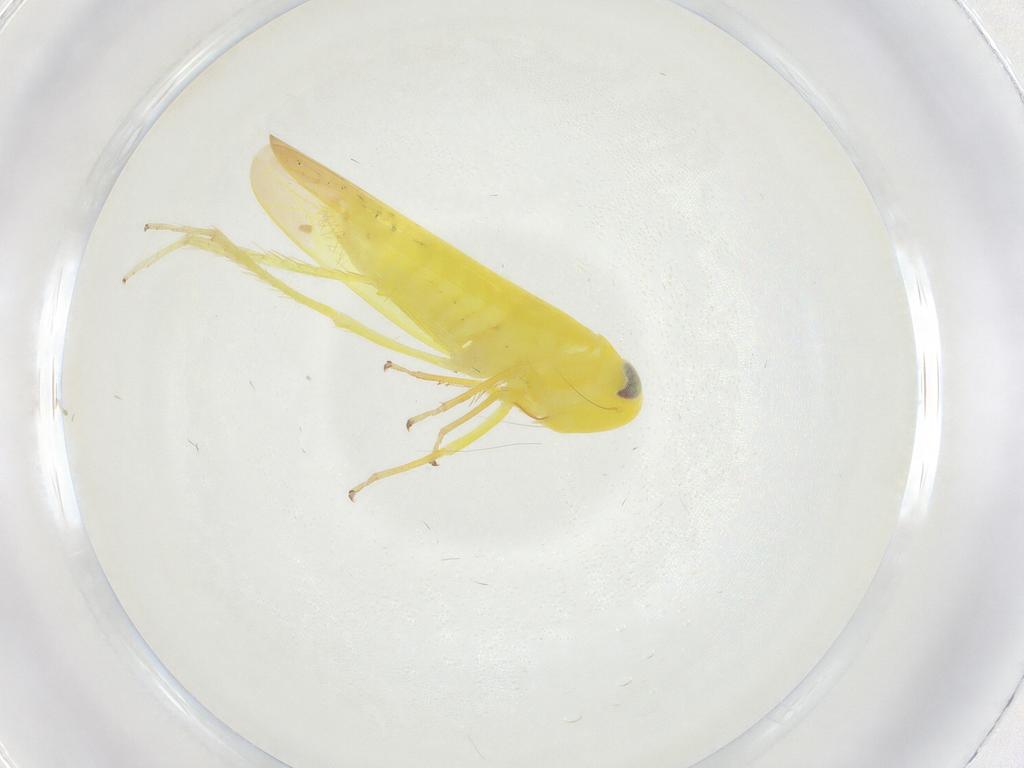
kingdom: Animalia
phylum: Arthropoda
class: Insecta
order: Hemiptera
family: Cicadellidae
